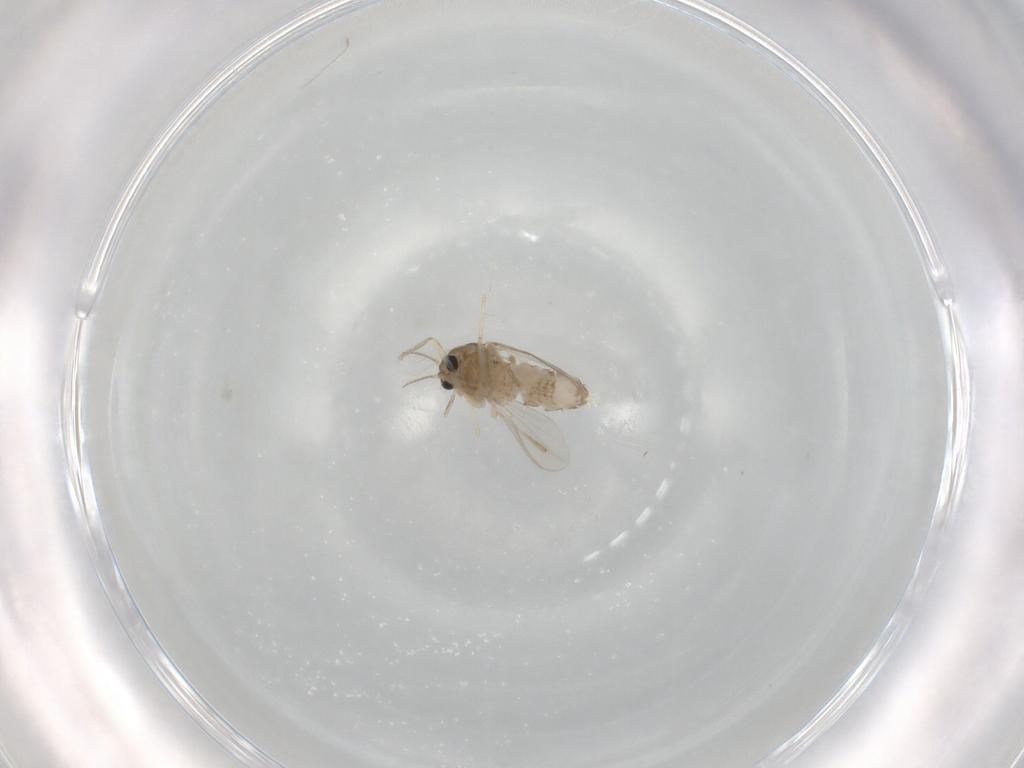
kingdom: Animalia
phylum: Arthropoda
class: Insecta
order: Diptera
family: Chironomidae
